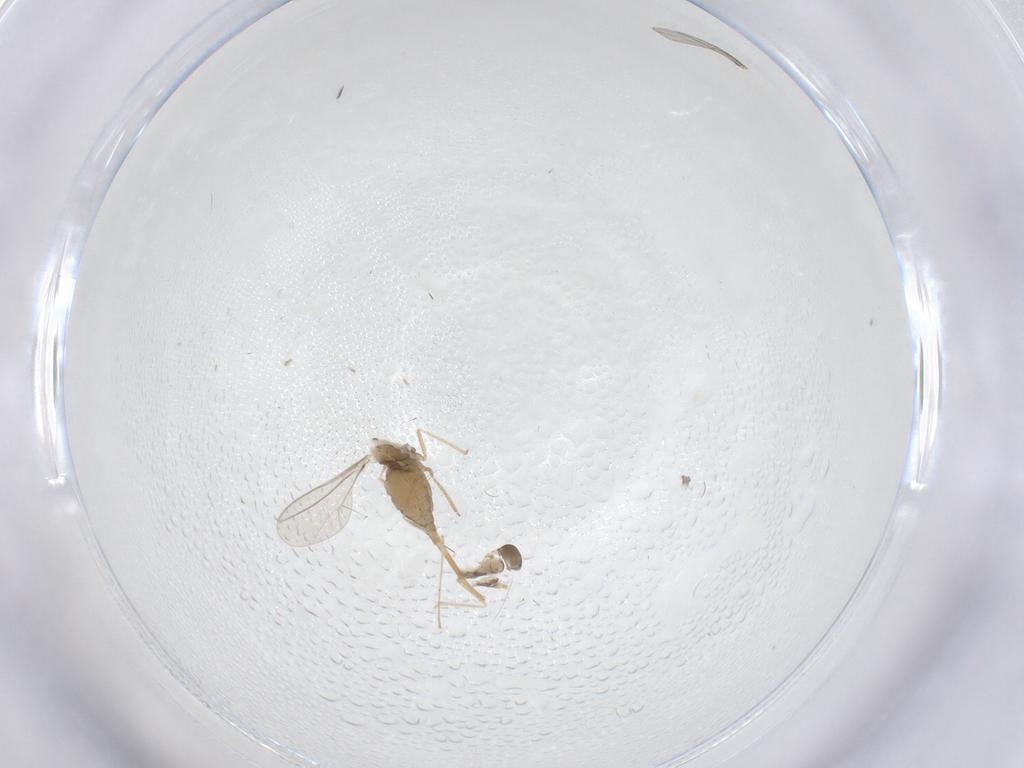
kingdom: Animalia
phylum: Arthropoda
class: Insecta
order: Diptera
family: Cecidomyiidae
